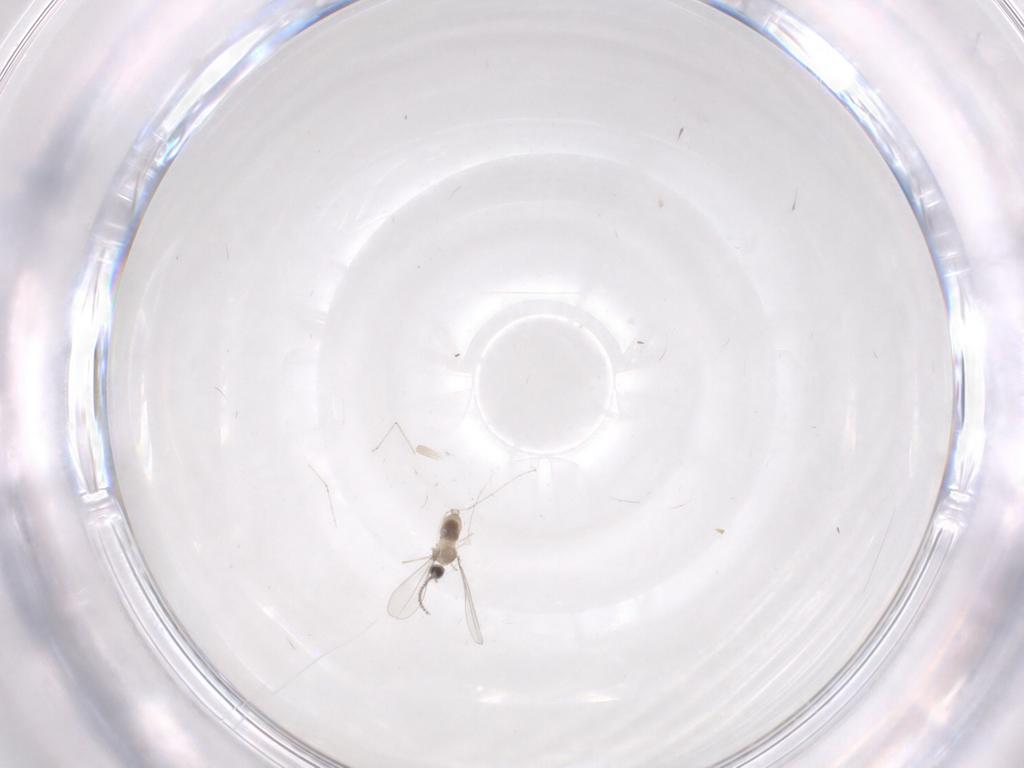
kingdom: Animalia
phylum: Arthropoda
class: Insecta
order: Diptera
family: Cecidomyiidae
